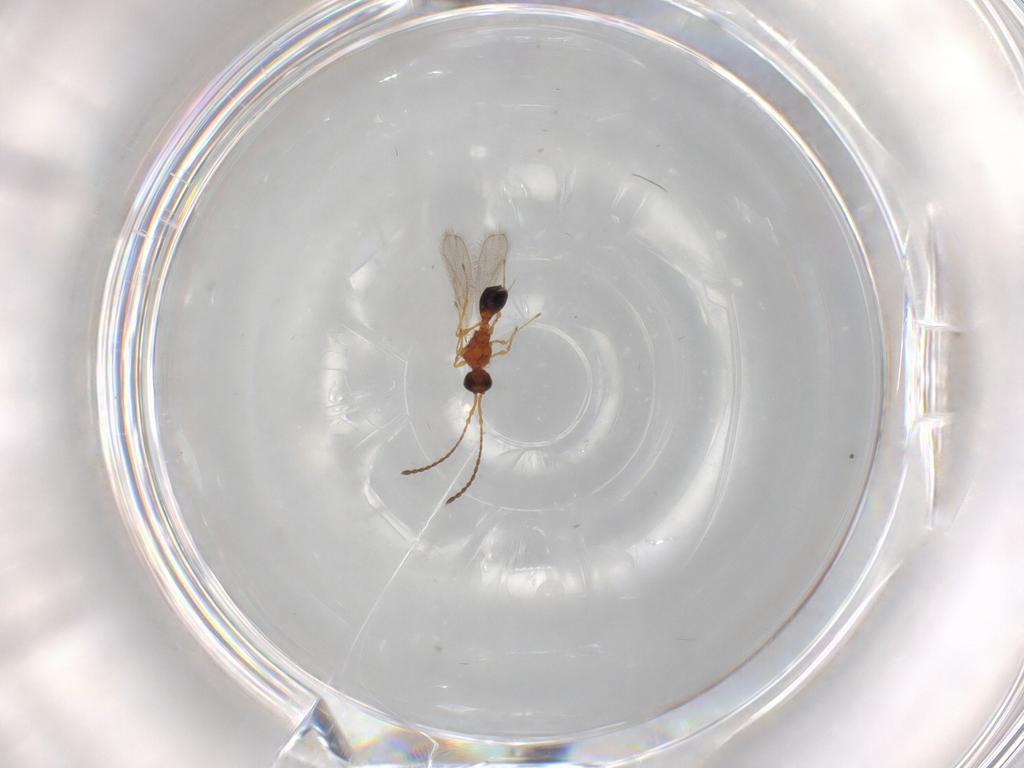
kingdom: Animalia
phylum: Arthropoda
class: Insecta
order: Hymenoptera
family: Diapriidae
